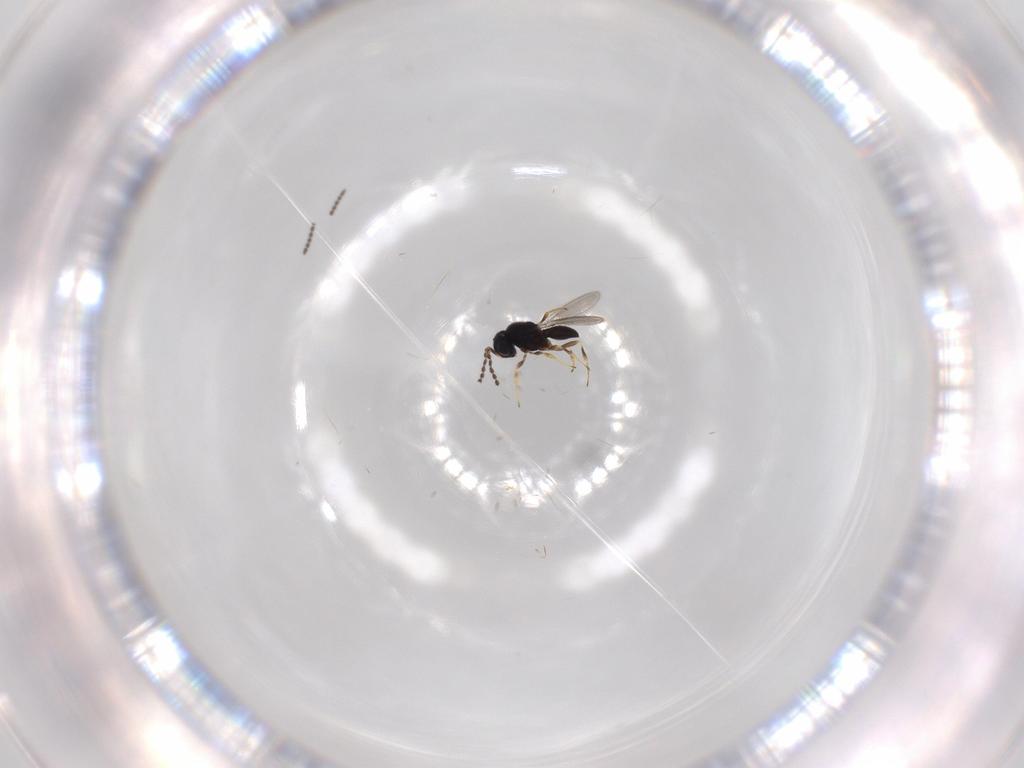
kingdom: Animalia
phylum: Arthropoda
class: Insecta
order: Hymenoptera
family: Scelionidae
